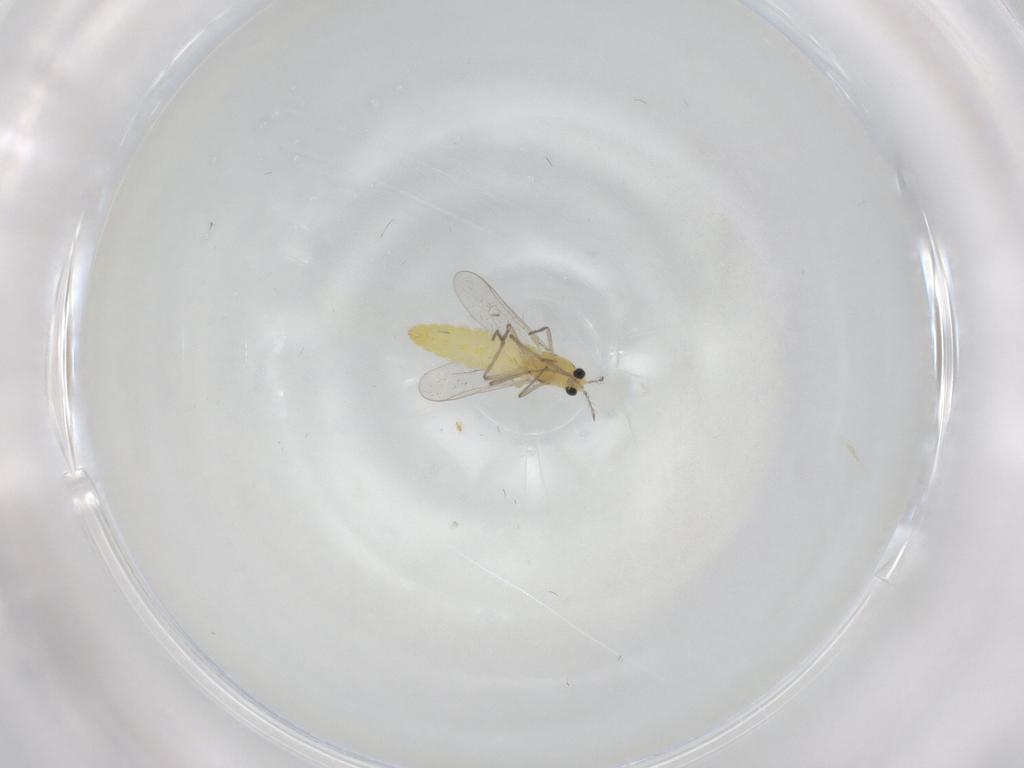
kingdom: Animalia
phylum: Arthropoda
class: Insecta
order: Diptera
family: Chironomidae
